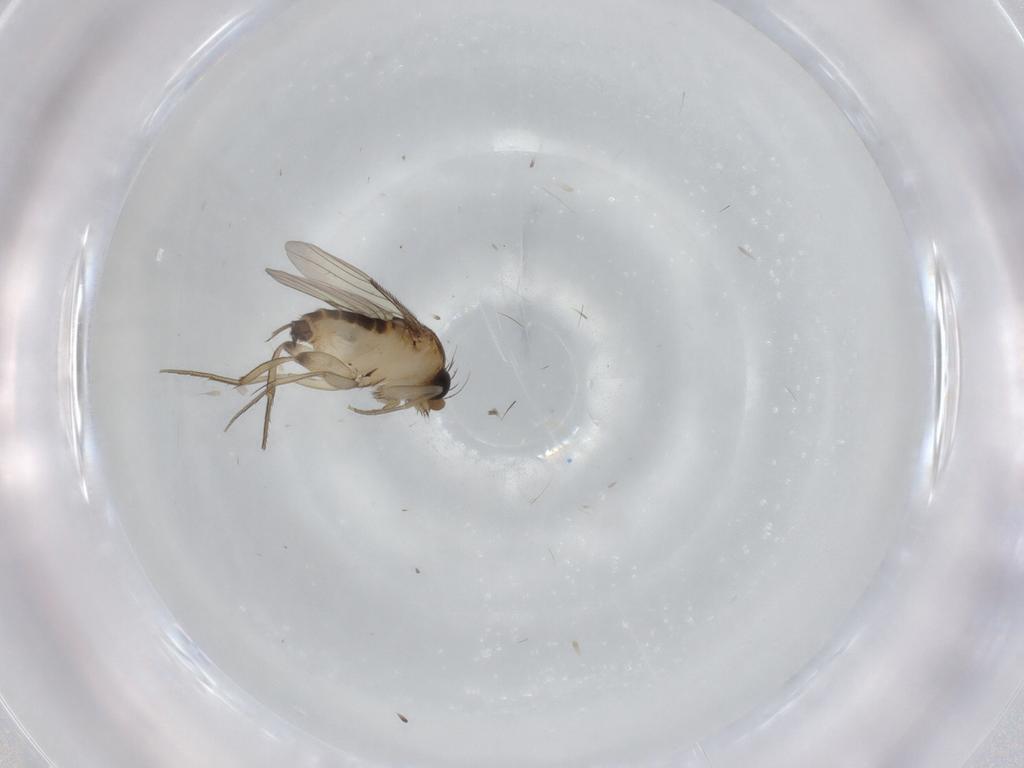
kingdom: Animalia
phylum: Arthropoda
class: Insecta
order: Diptera
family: Phoridae
